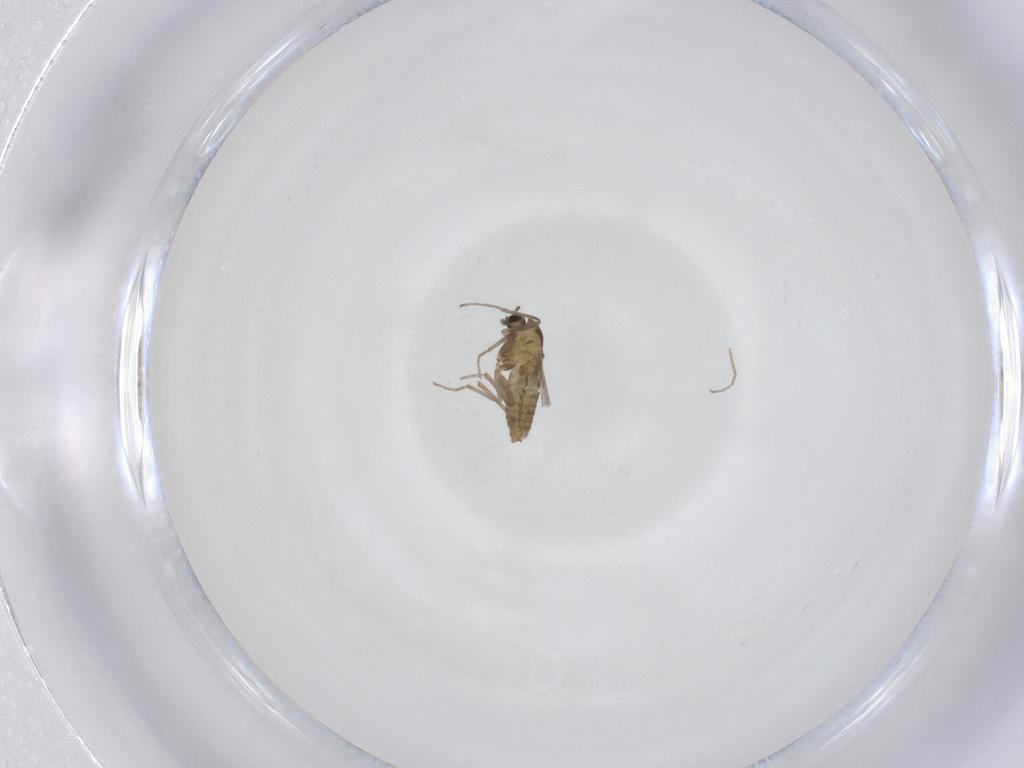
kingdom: Animalia
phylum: Arthropoda
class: Insecta
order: Diptera
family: Chironomidae
